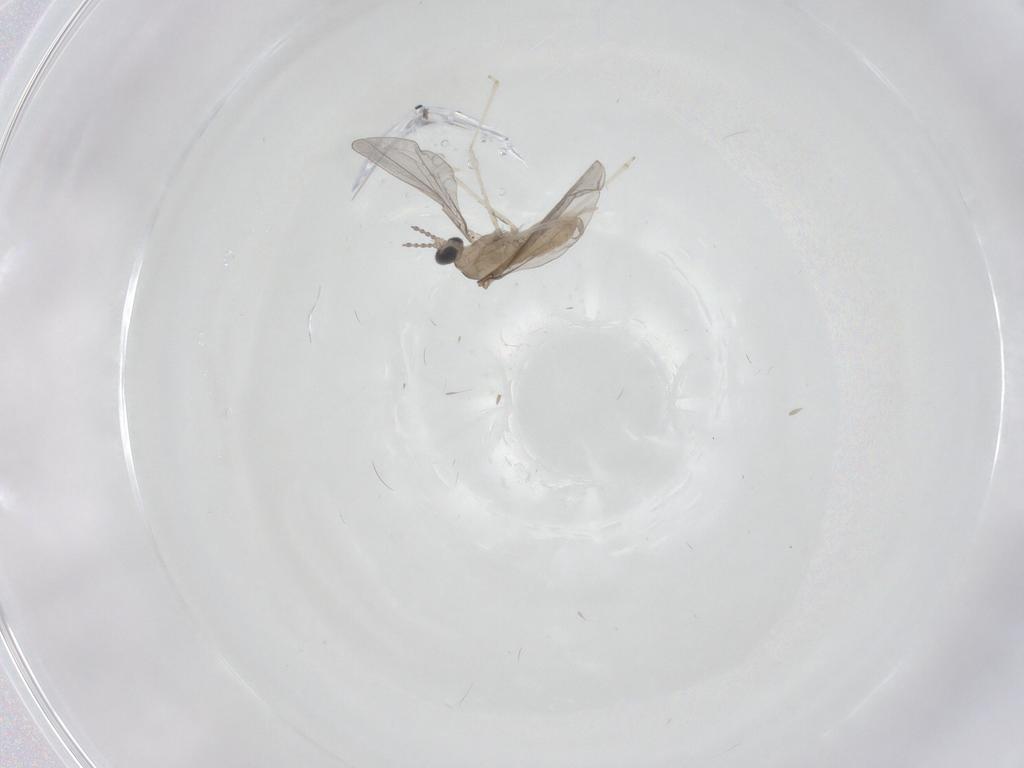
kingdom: Animalia
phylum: Arthropoda
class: Insecta
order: Diptera
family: Cecidomyiidae
